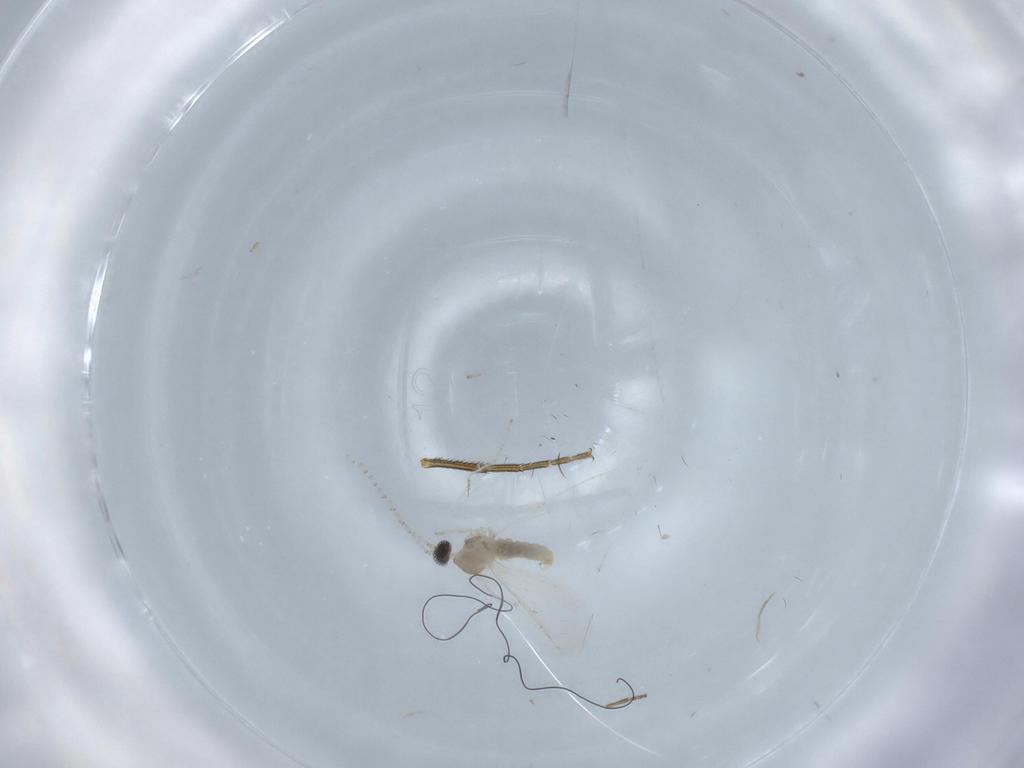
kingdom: Animalia
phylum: Arthropoda
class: Insecta
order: Diptera
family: Cecidomyiidae
